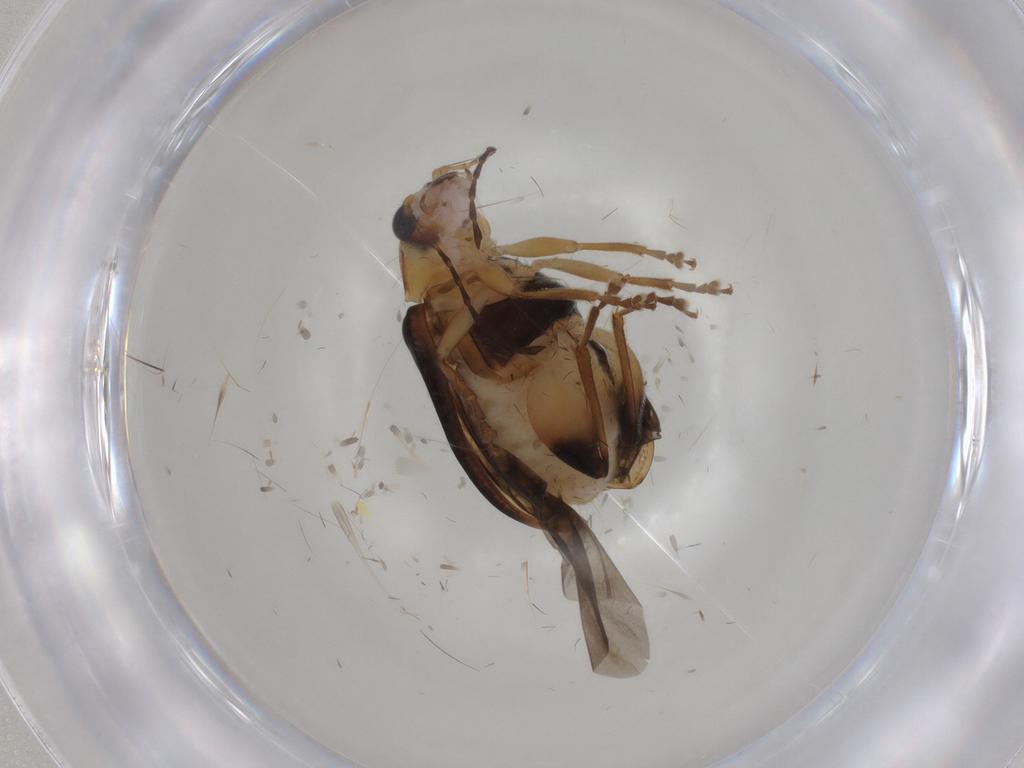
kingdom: Animalia
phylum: Arthropoda
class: Insecta
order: Coleoptera
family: Chrysomelidae
